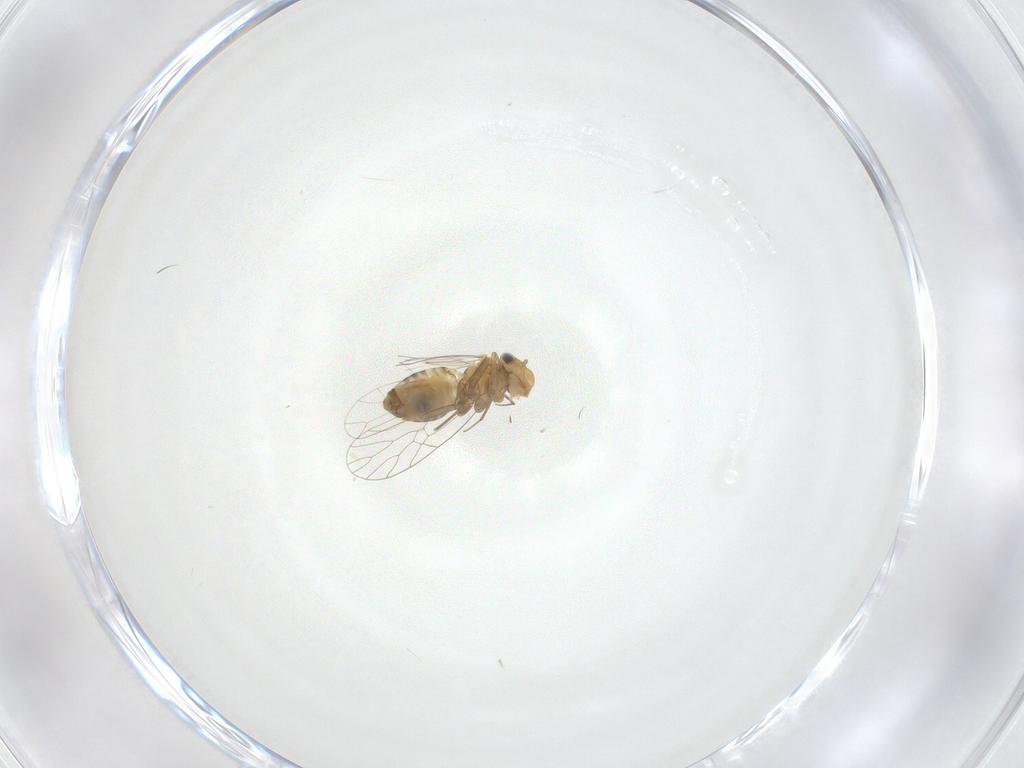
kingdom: Animalia
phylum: Arthropoda
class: Insecta
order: Psocodea
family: Prionoglarididae
